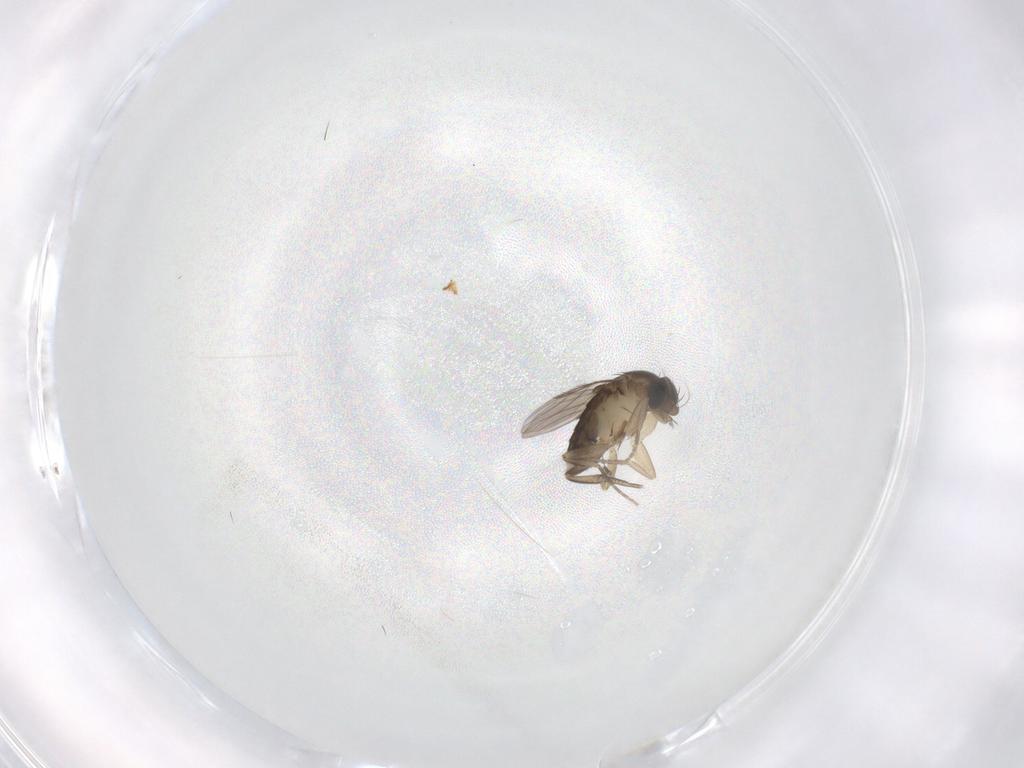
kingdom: Animalia
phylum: Arthropoda
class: Insecta
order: Diptera
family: Phoridae
